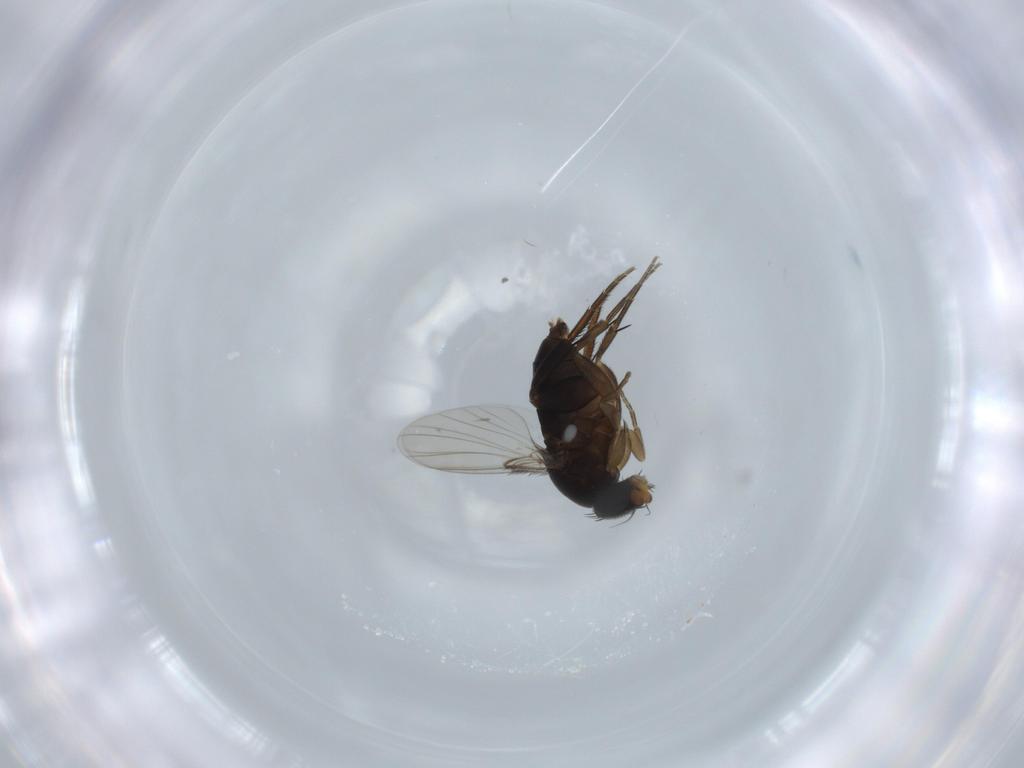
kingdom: Animalia
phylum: Arthropoda
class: Insecta
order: Diptera
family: Phoridae
